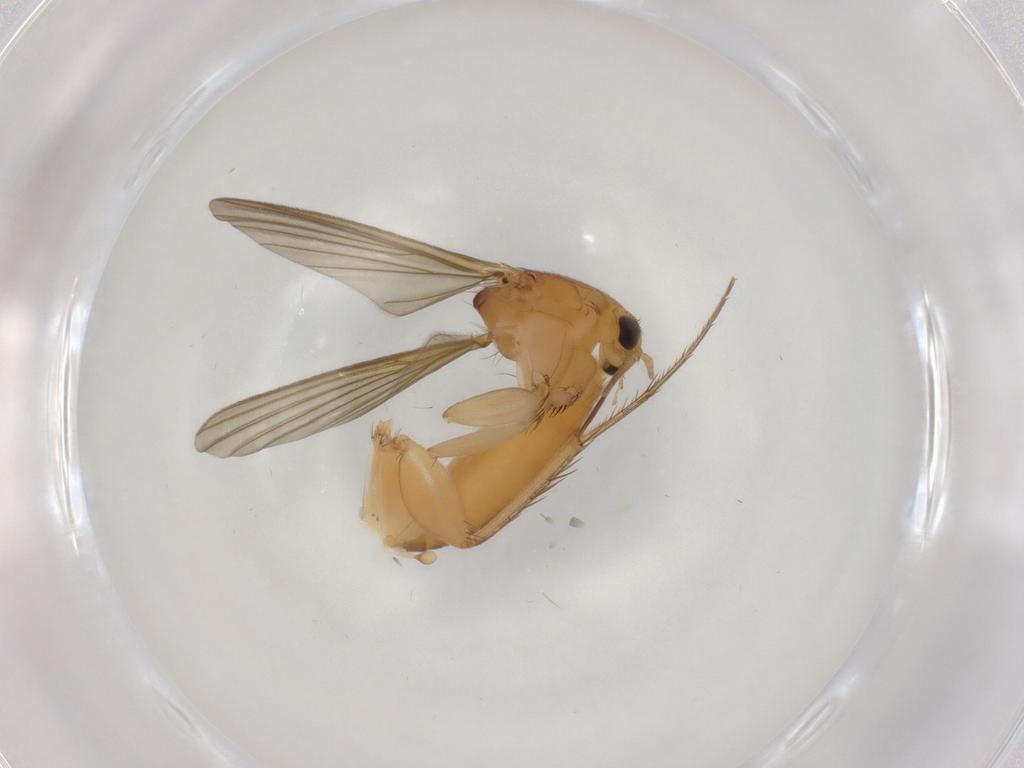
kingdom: Animalia
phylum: Arthropoda
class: Insecta
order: Diptera
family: Mycetophilidae
